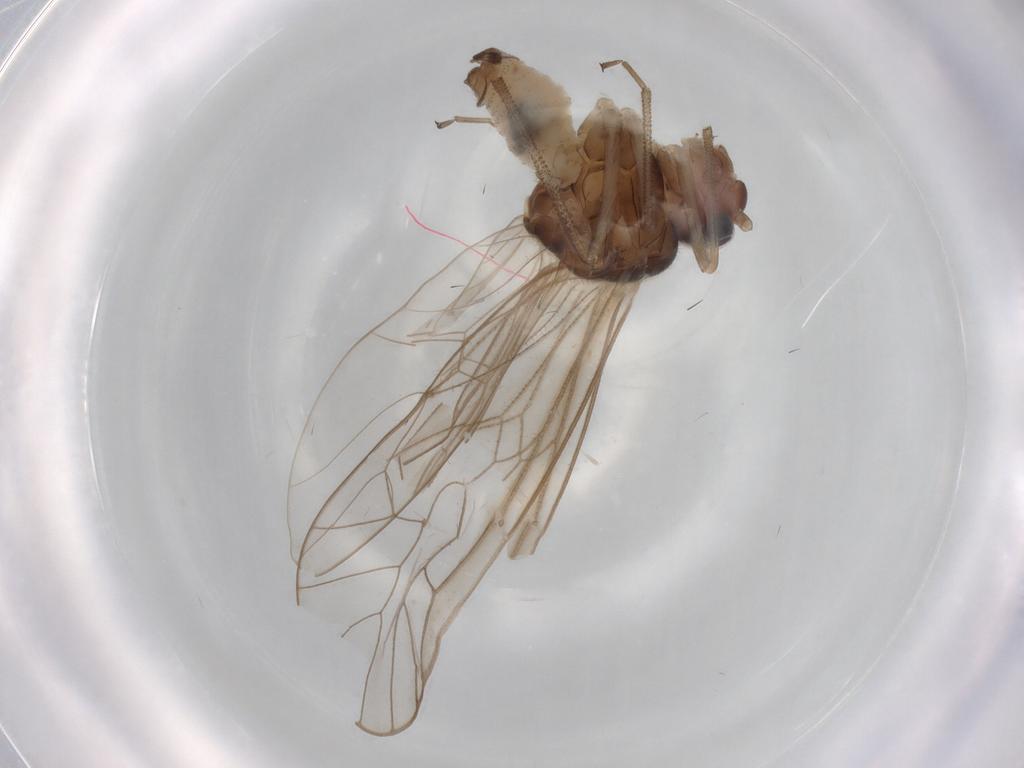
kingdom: Animalia
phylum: Arthropoda
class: Insecta
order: Psocodea
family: Stenopsocidae
